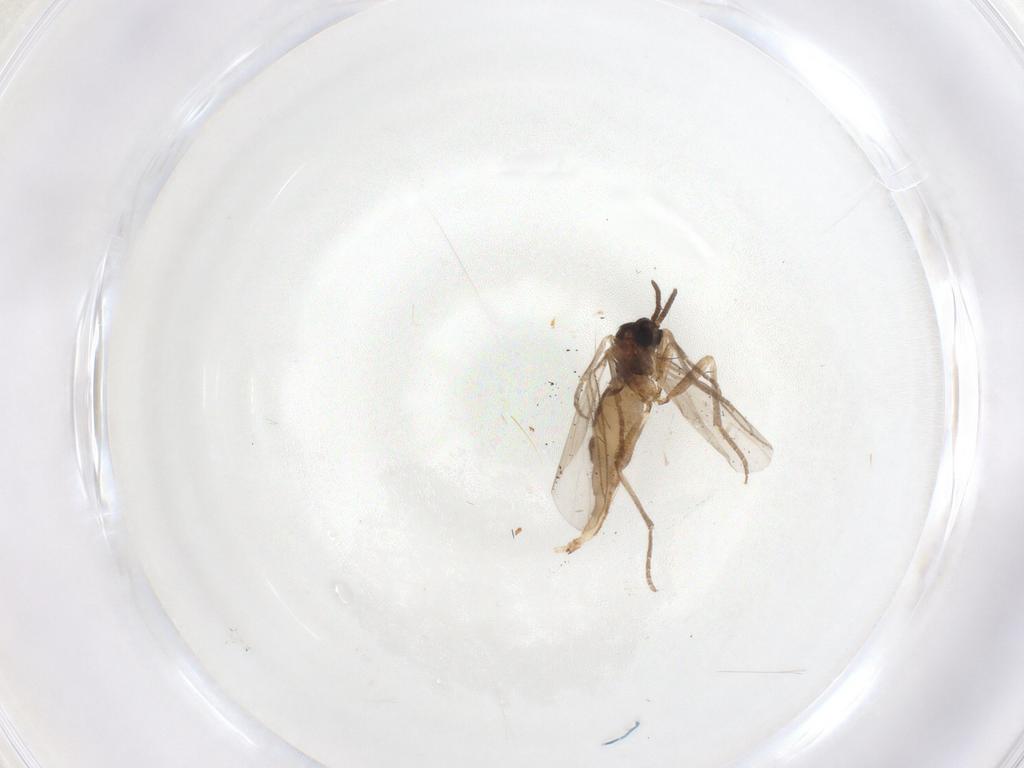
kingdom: Animalia
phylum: Arthropoda
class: Insecta
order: Diptera
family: Sciaridae
